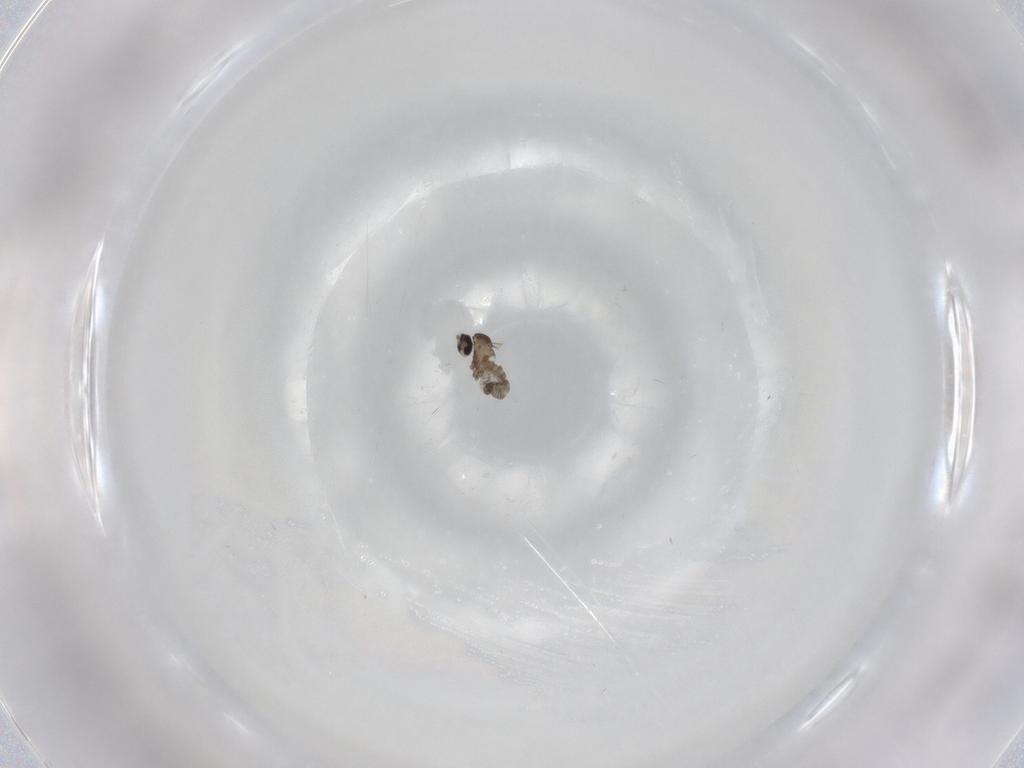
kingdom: Animalia
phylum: Arthropoda
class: Insecta
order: Diptera
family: Cecidomyiidae
